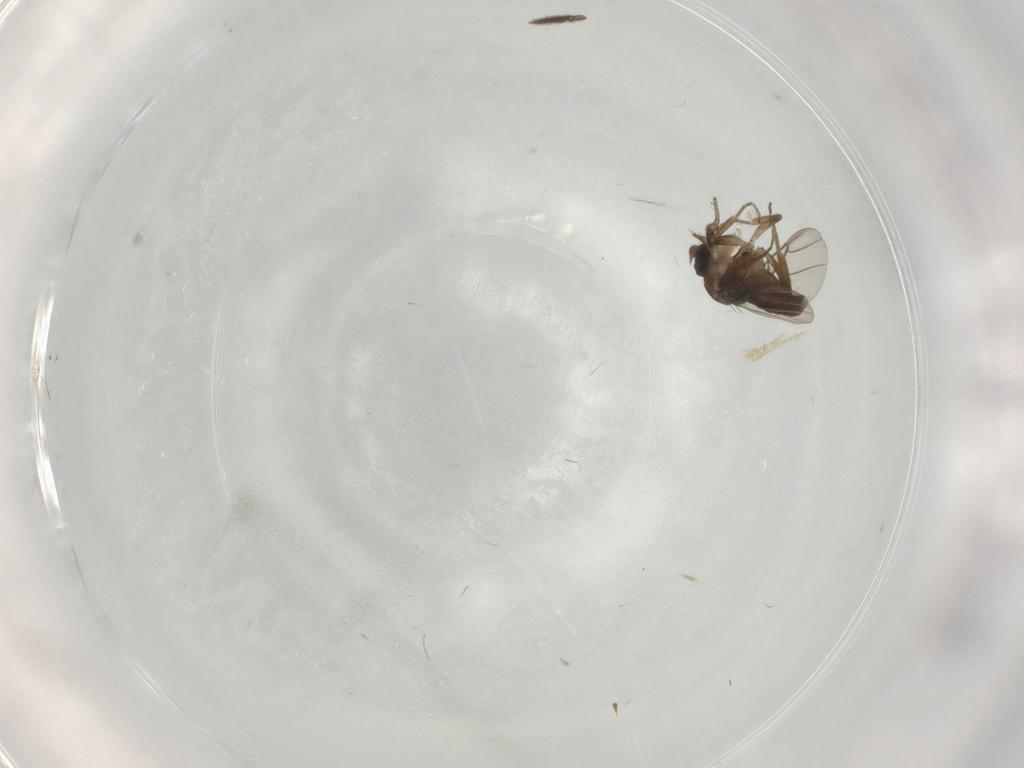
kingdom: Animalia
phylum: Arthropoda
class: Insecta
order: Diptera
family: Phoridae
